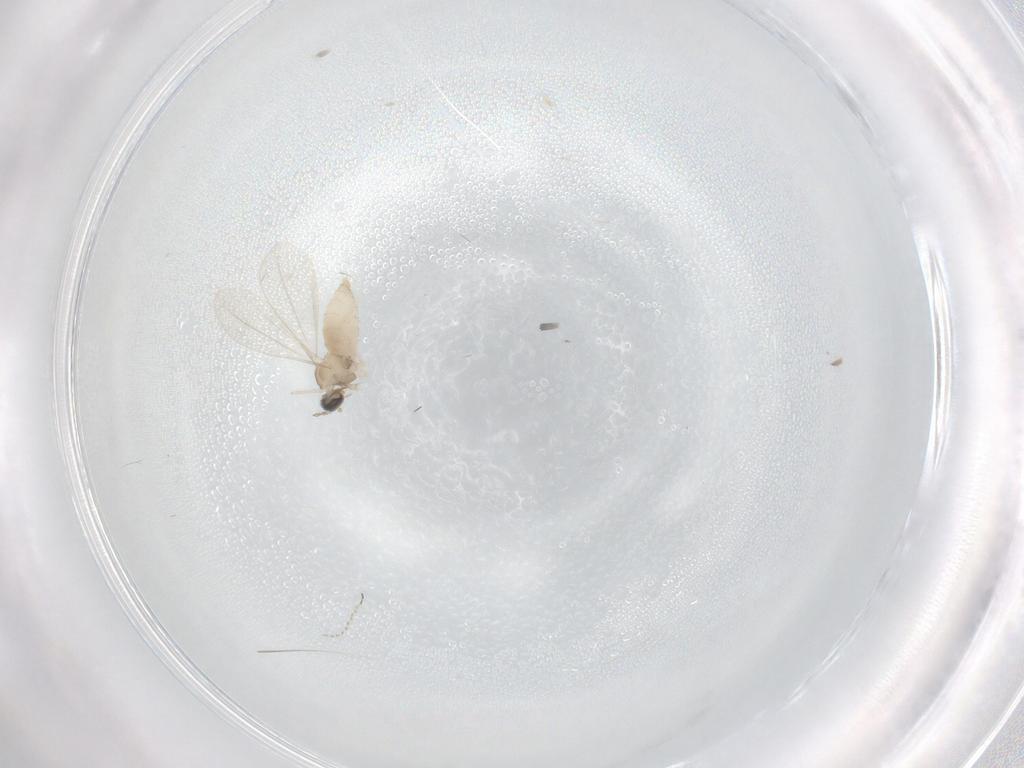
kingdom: Animalia
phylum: Arthropoda
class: Insecta
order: Diptera
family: Cecidomyiidae
